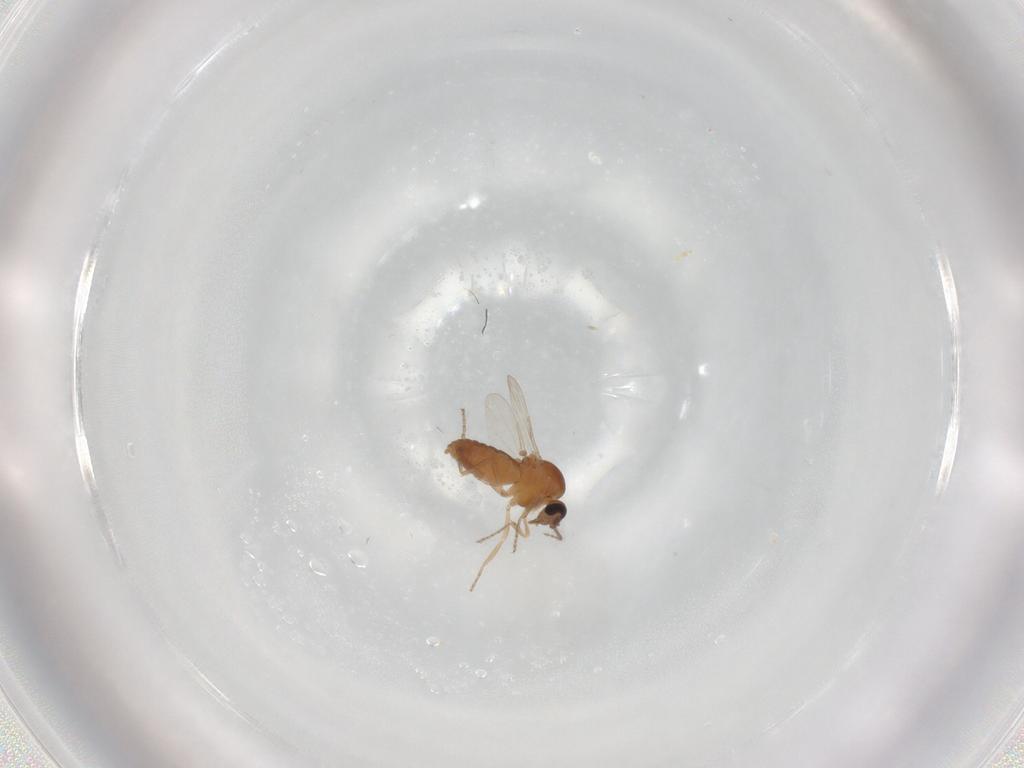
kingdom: Animalia
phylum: Arthropoda
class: Insecta
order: Diptera
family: Ceratopogonidae
